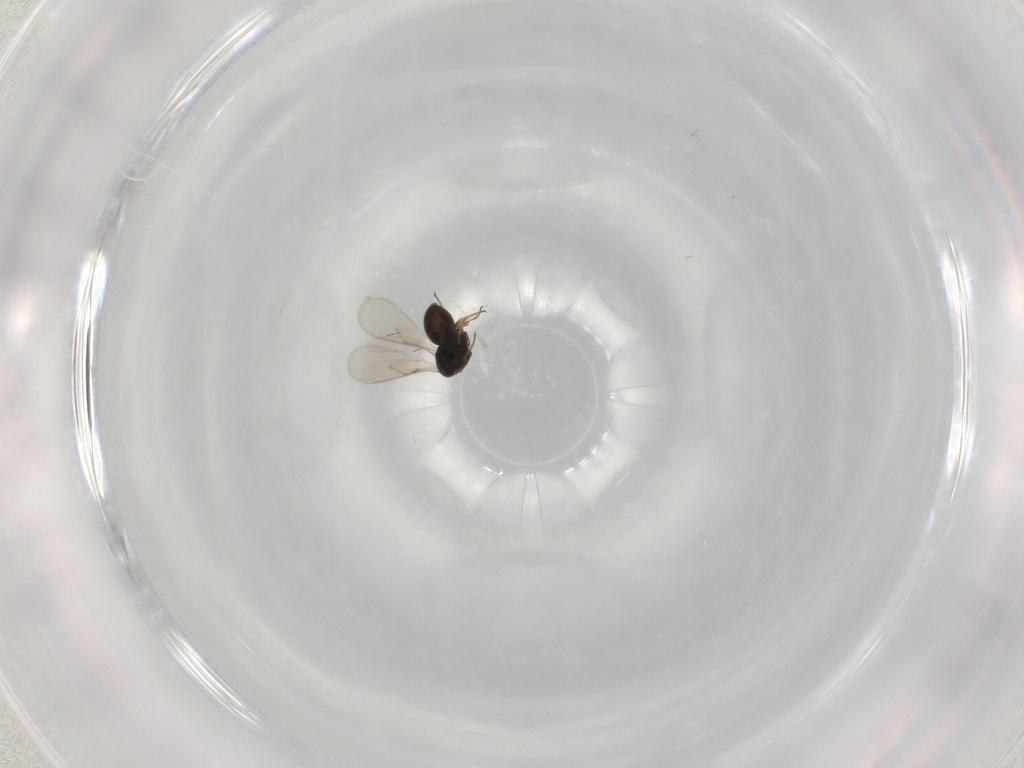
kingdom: Animalia
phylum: Arthropoda
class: Insecta
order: Hymenoptera
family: Scelionidae
